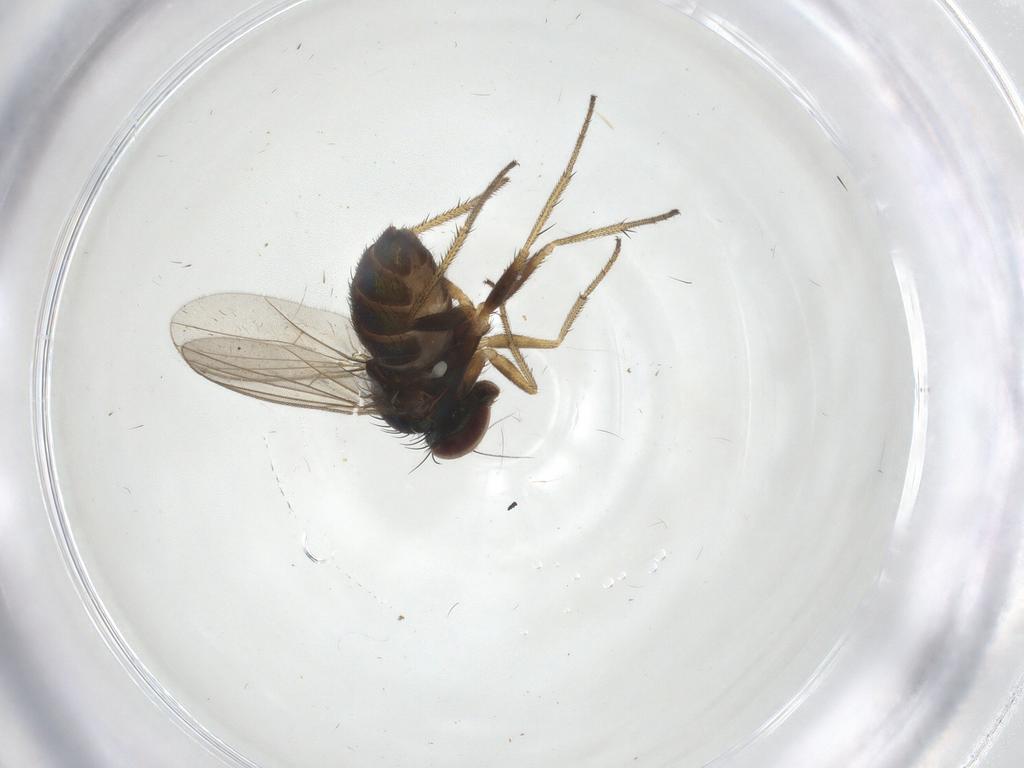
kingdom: Animalia
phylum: Arthropoda
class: Insecta
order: Diptera
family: Dolichopodidae
